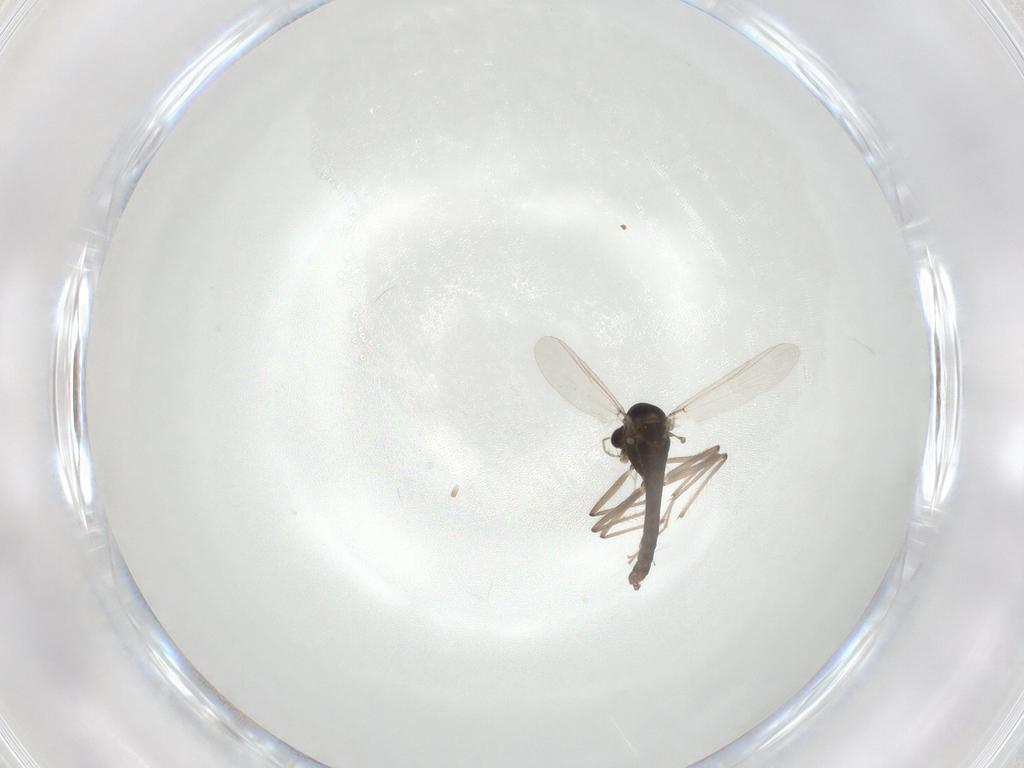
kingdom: Animalia
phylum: Arthropoda
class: Insecta
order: Diptera
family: Chironomidae
